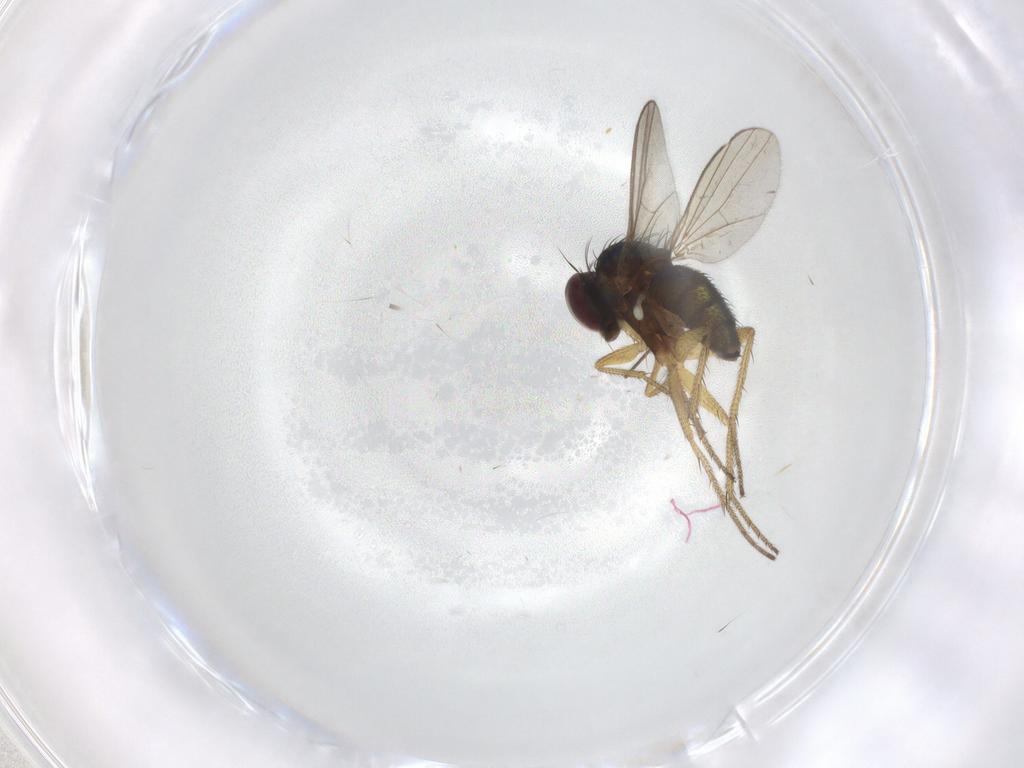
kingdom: Animalia
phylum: Arthropoda
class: Insecta
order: Diptera
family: Chironomidae
